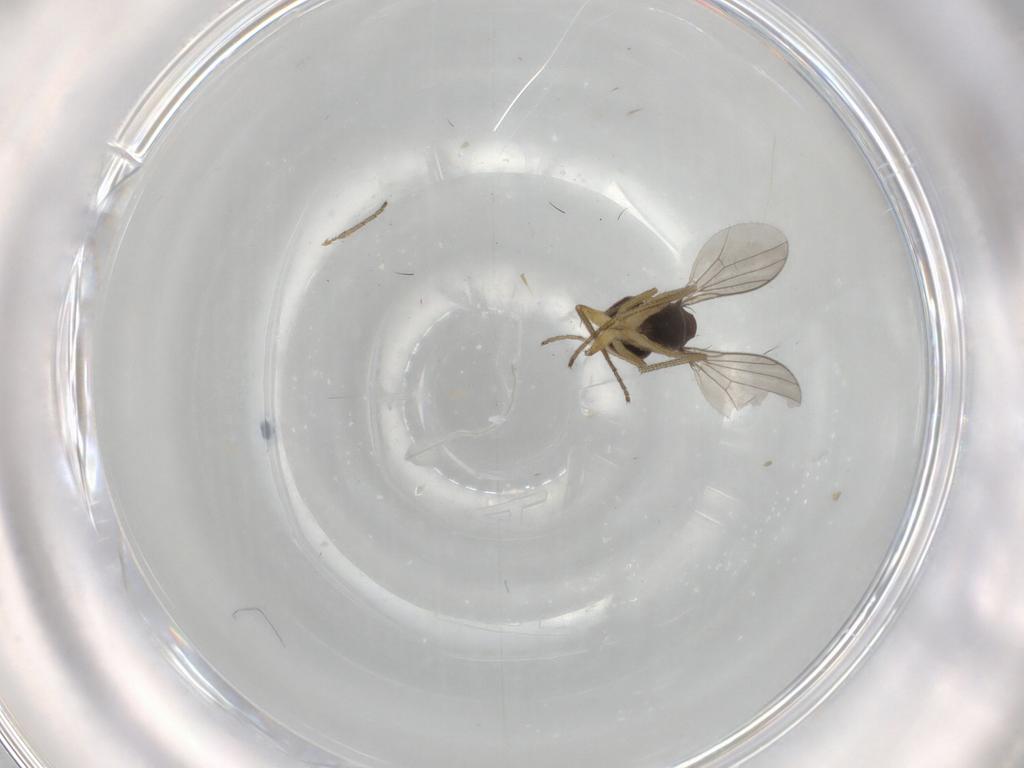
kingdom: Animalia
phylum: Arthropoda
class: Insecta
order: Diptera
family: Dolichopodidae
